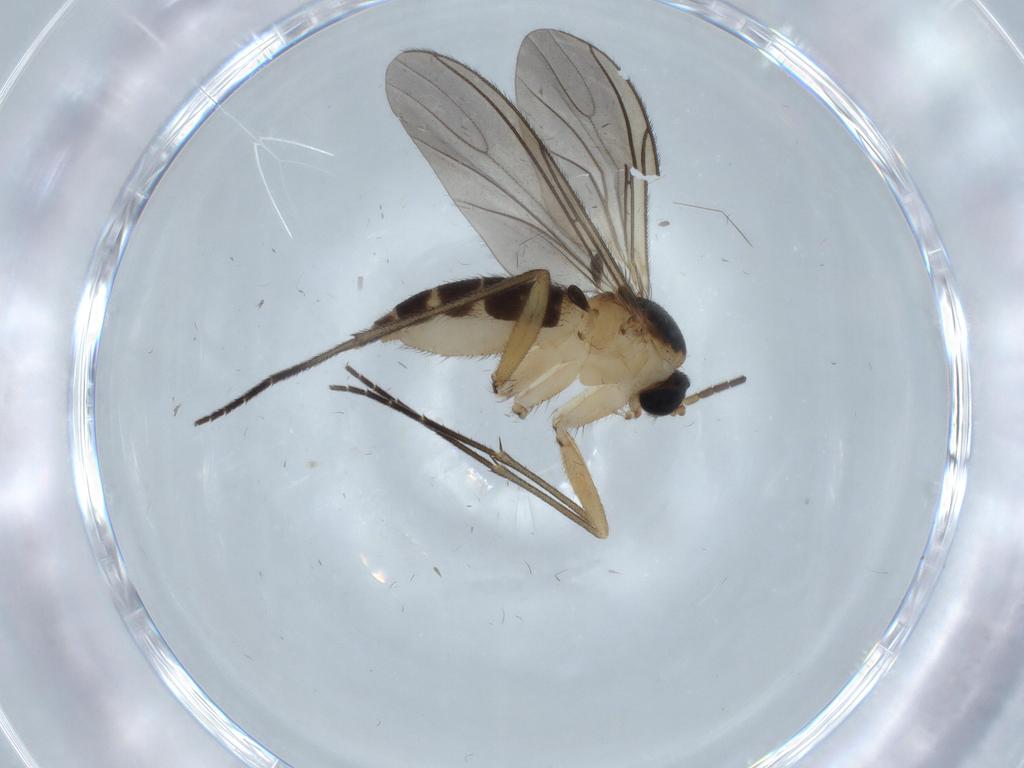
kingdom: Animalia
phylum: Arthropoda
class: Insecta
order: Diptera
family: Sciaridae
